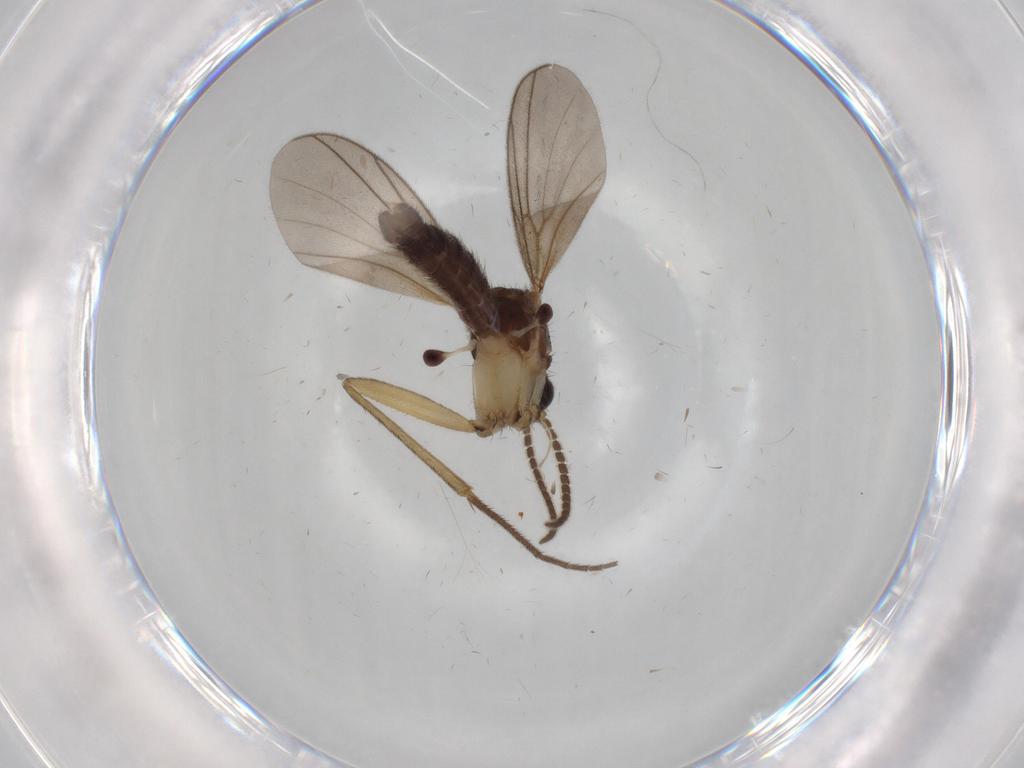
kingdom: Animalia
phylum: Arthropoda
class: Insecta
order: Diptera
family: Mycetophilidae
